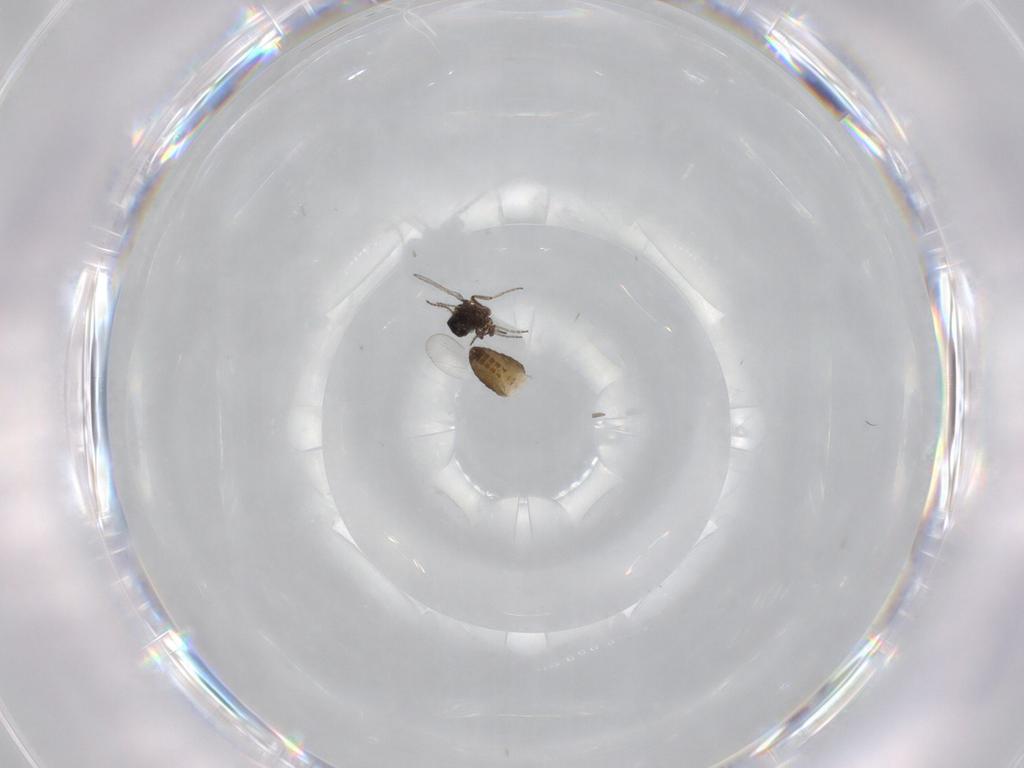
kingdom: Animalia
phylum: Arthropoda
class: Insecta
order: Diptera
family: Ceratopogonidae
